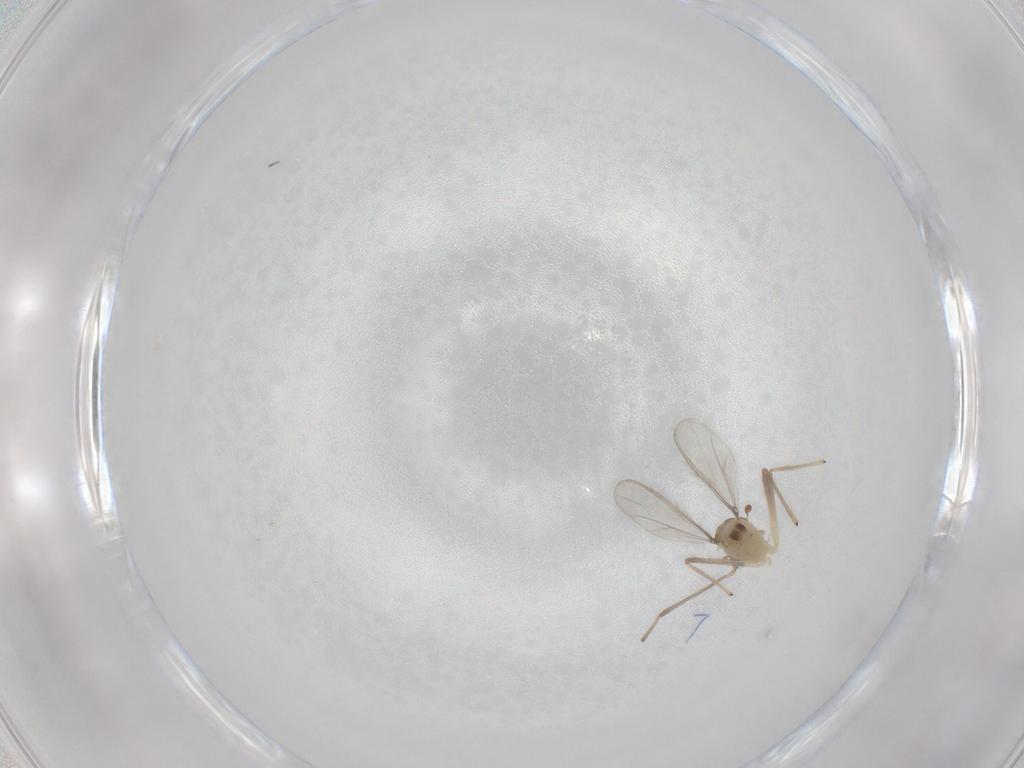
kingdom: Animalia
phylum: Arthropoda
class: Insecta
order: Diptera
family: Chironomidae
